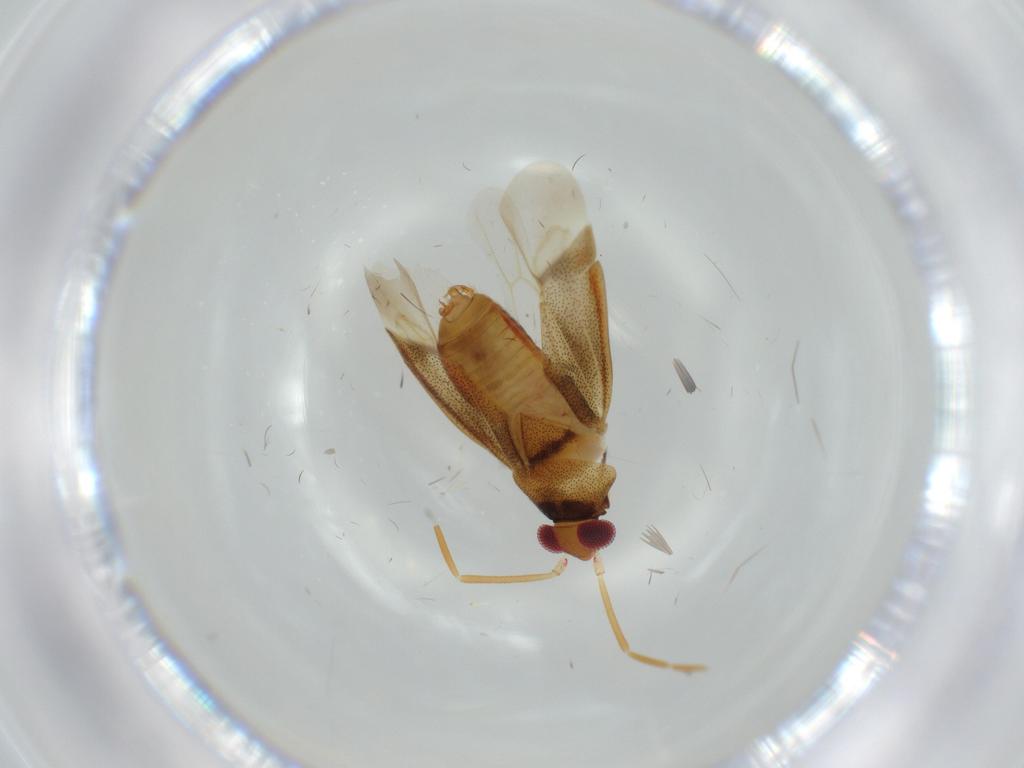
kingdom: Animalia
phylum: Arthropoda
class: Insecta
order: Hemiptera
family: Miridae
